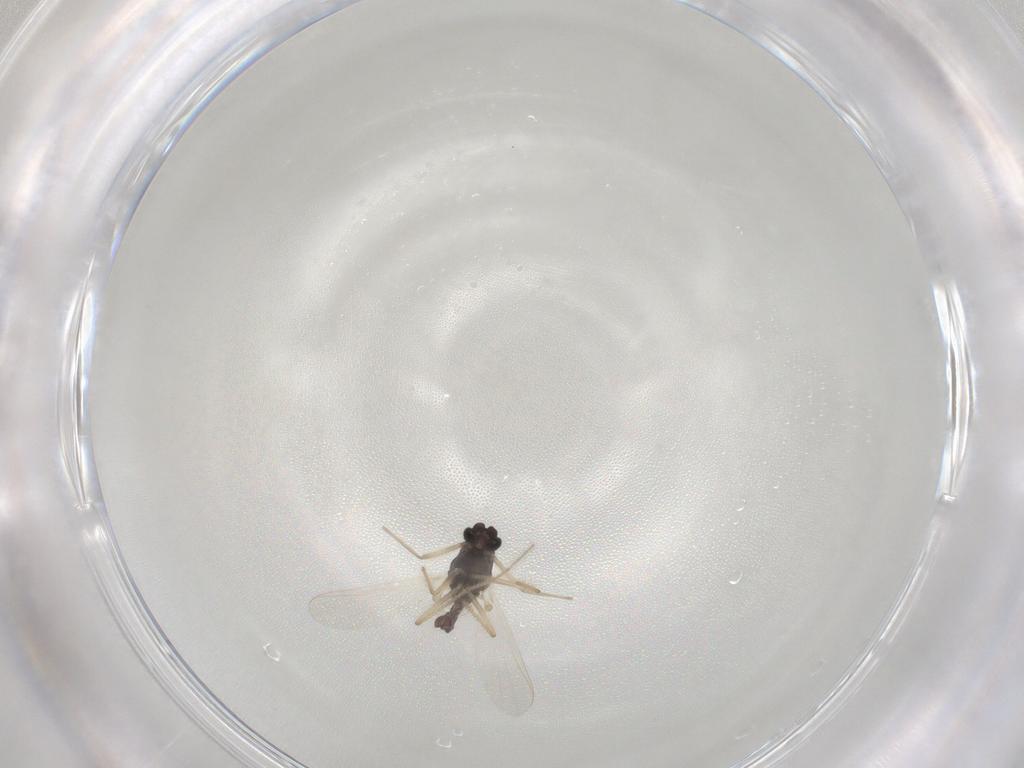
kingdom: Animalia
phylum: Arthropoda
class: Insecta
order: Diptera
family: Chironomidae
